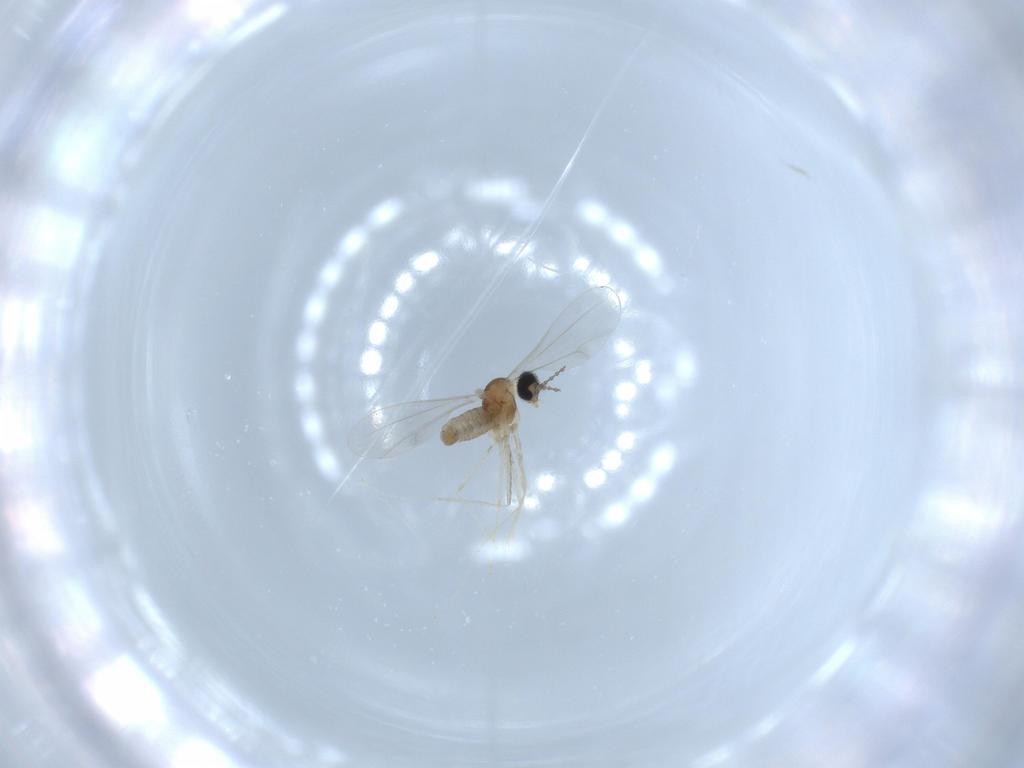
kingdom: Animalia
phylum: Arthropoda
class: Insecta
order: Diptera
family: Cecidomyiidae
